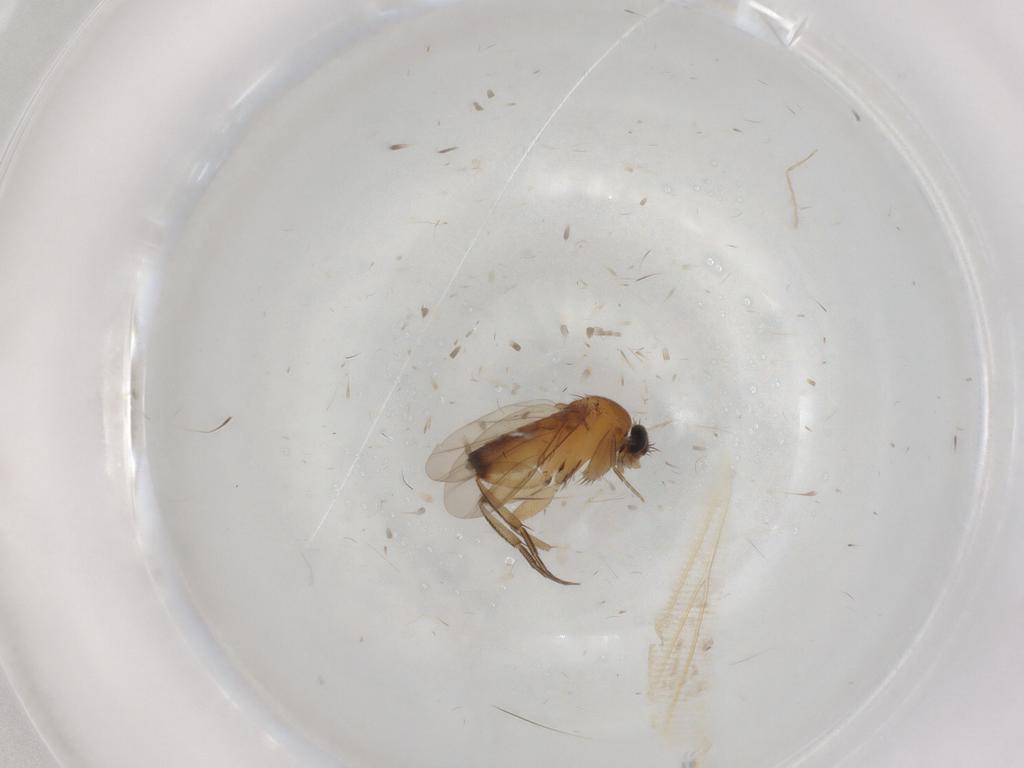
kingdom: Animalia
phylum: Arthropoda
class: Insecta
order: Diptera
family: Phoridae
